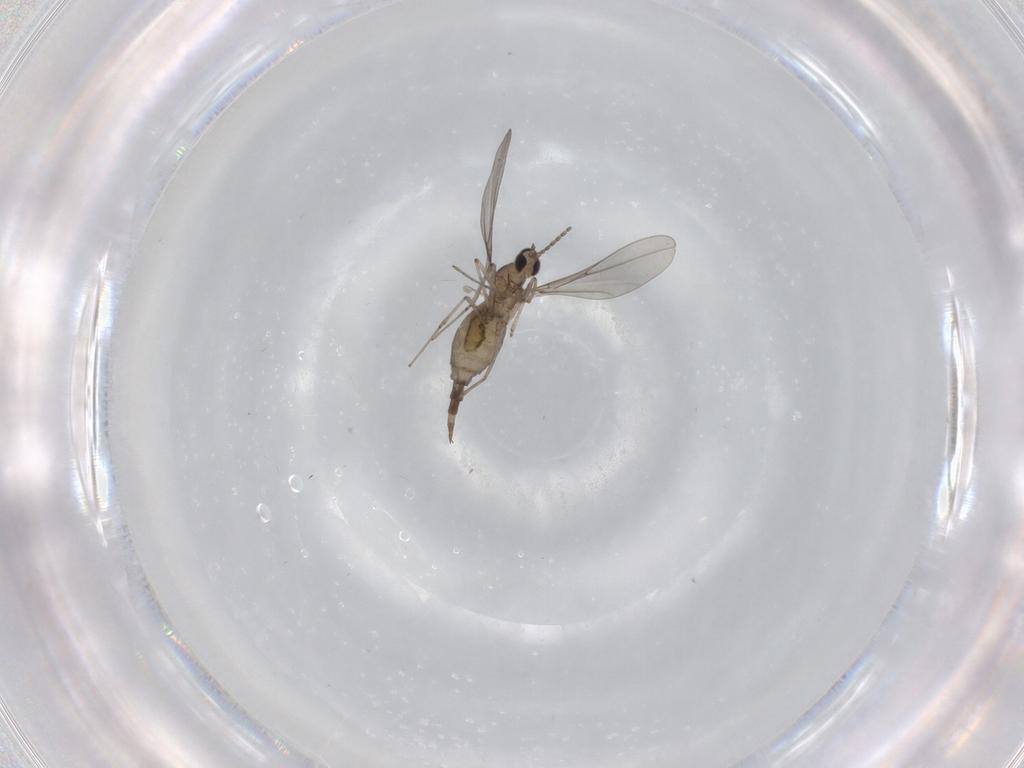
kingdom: Animalia
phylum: Arthropoda
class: Insecta
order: Diptera
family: Cecidomyiidae
